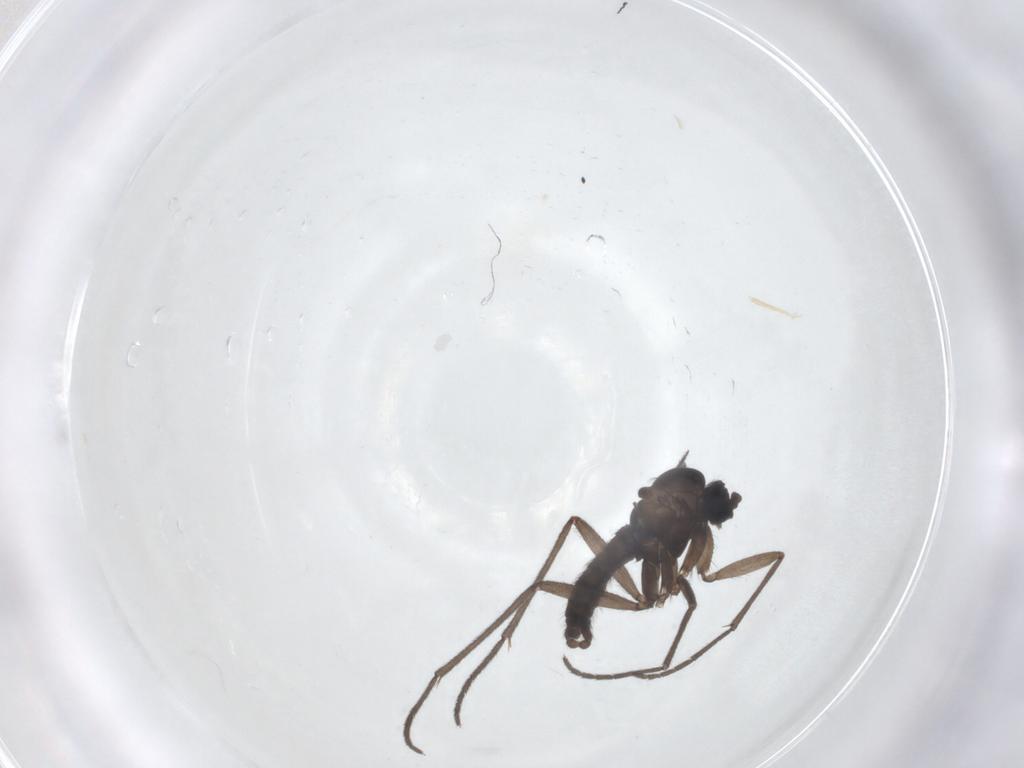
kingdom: Animalia
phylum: Arthropoda
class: Insecta
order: Diptera
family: Sciaridae
